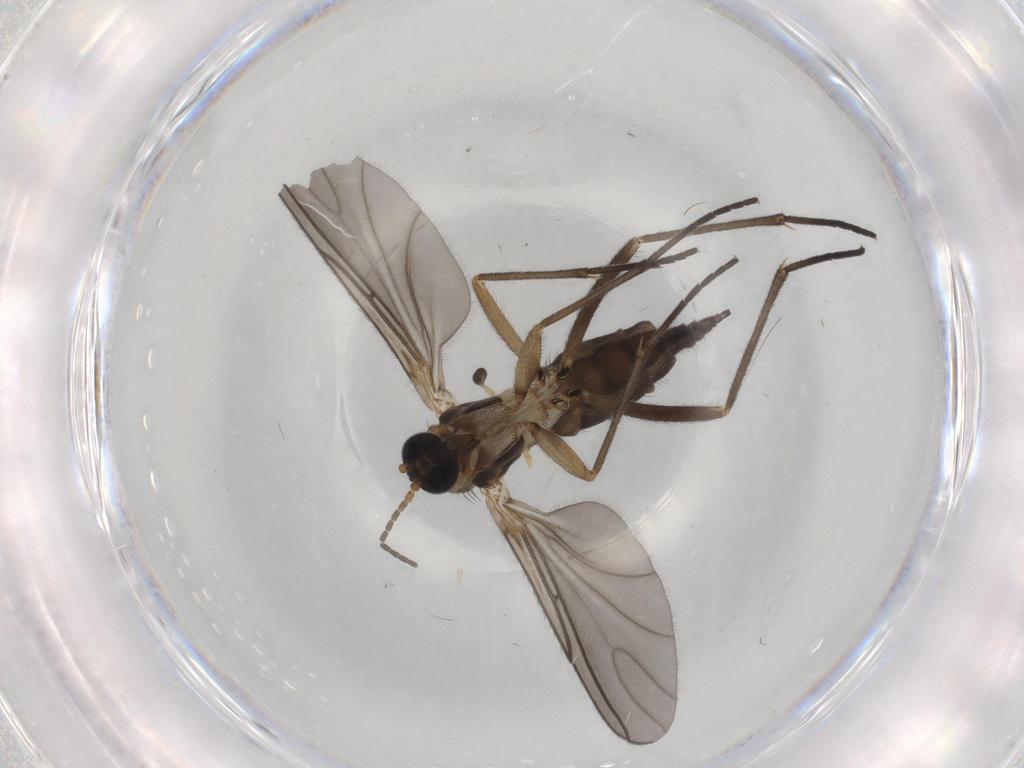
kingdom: Animalia
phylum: Arthropoda
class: Insecta
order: Diptera
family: Sciaridae
